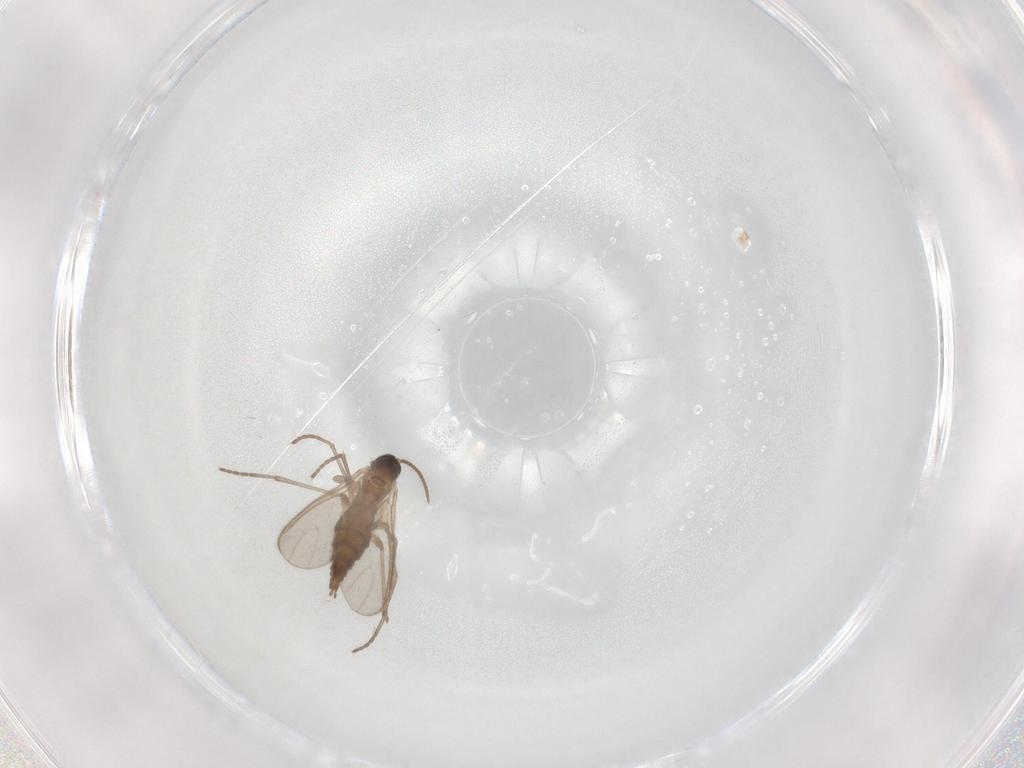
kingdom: Animalia
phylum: Arthropoda
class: Insecta
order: Diptera
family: Sciaridae
